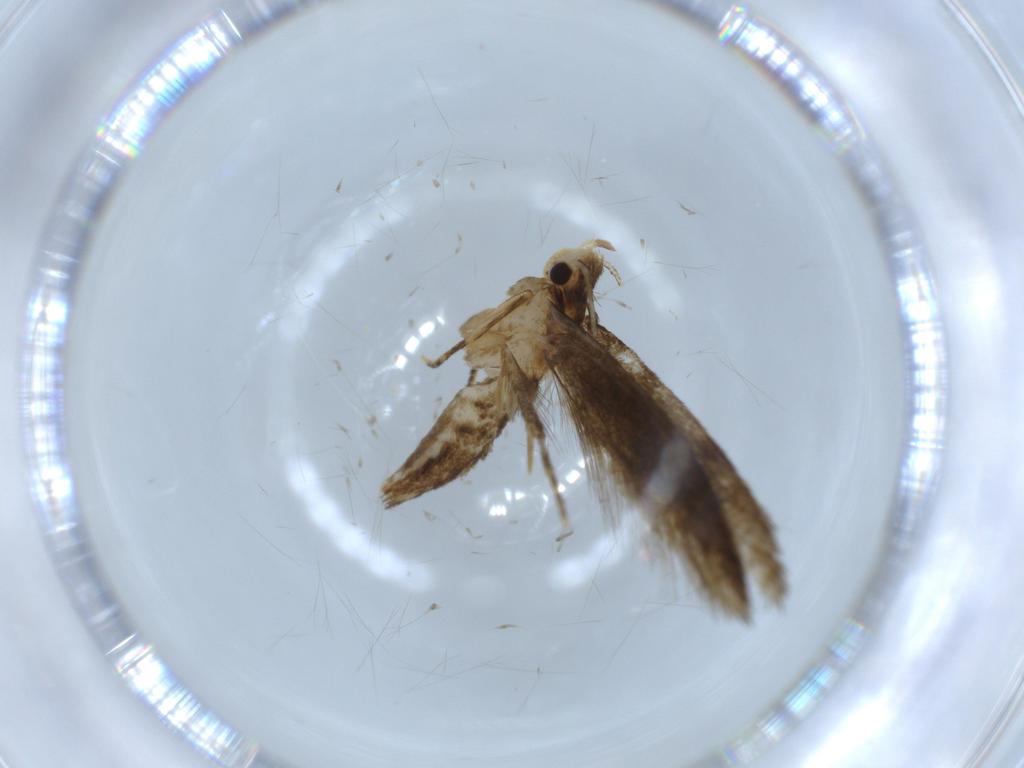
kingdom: Animalia
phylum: Arthropoda
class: Insecta
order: Lepidoptera
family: Tineidae
